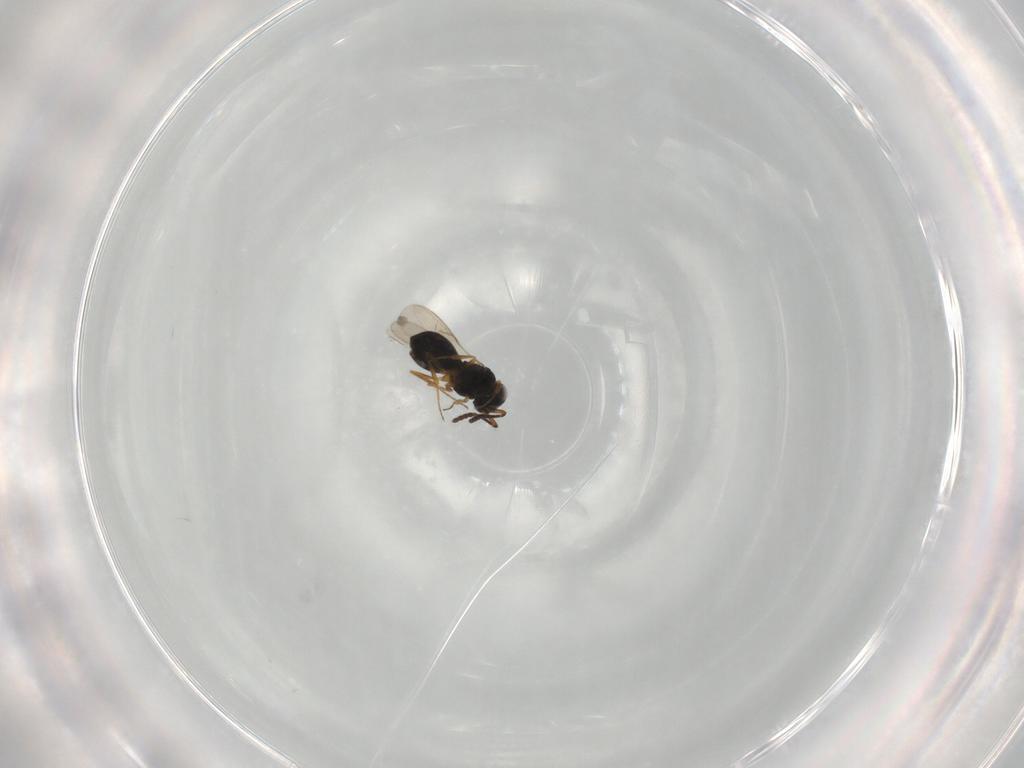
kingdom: Animalia
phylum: Arthropoda
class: Insecta
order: Hymenoptera
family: Scelionidae
